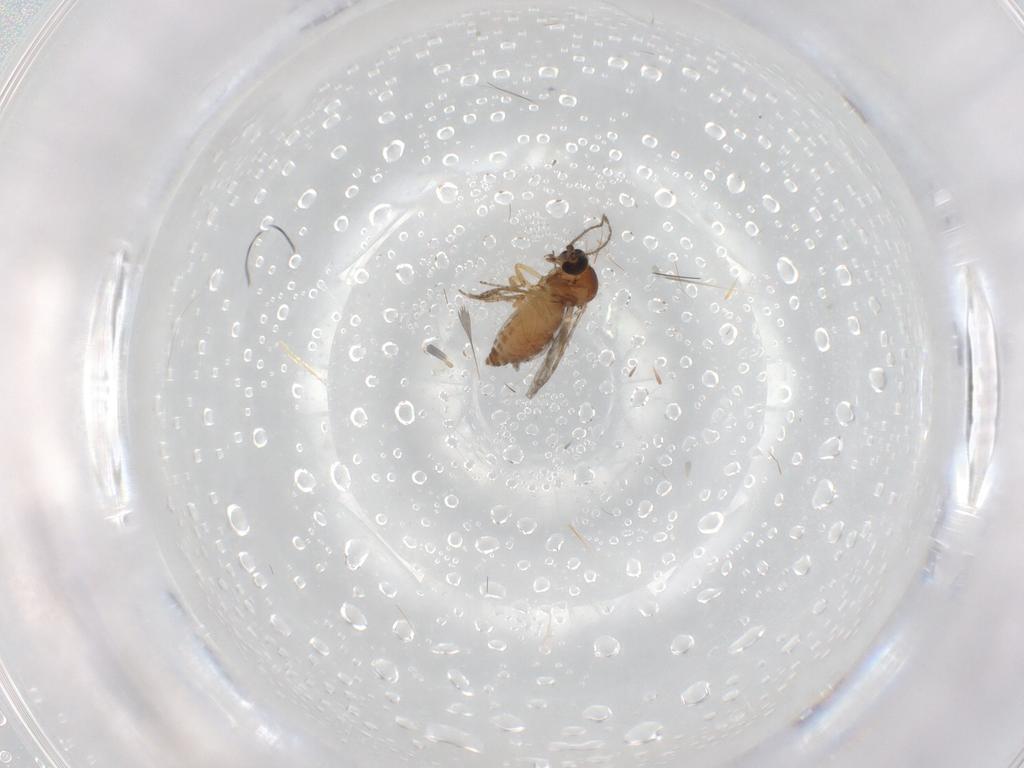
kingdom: Animalia
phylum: Arthropoda
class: Insecta
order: Diptera
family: Ceratopogonidae
